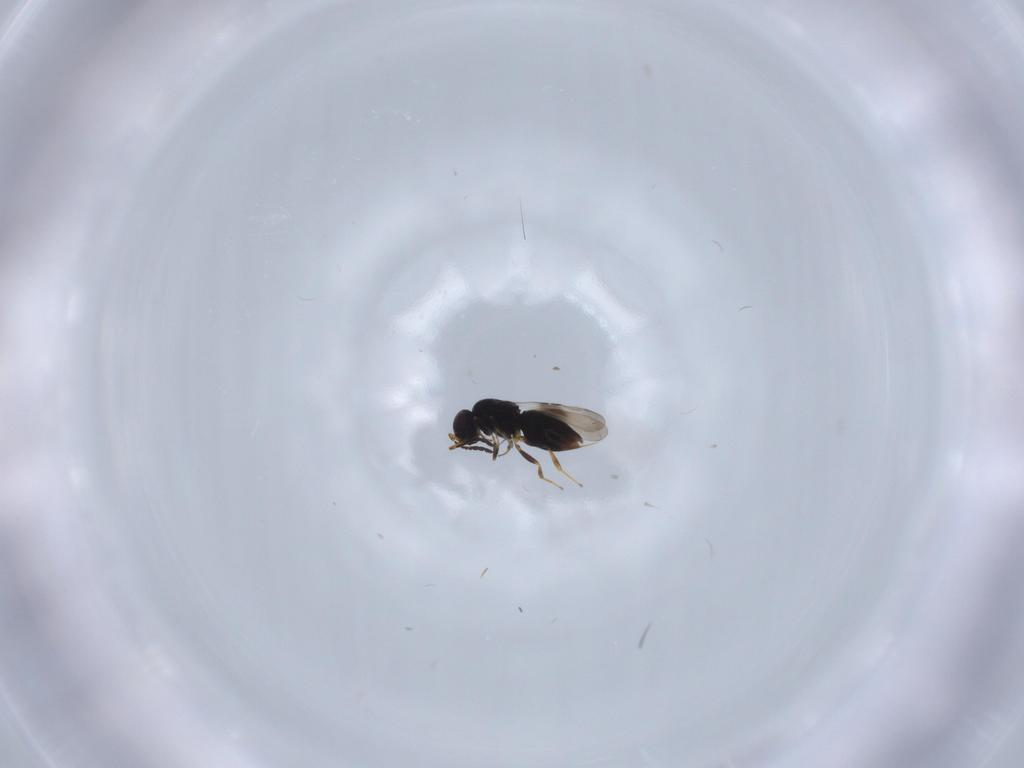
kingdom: Animalia
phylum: Arthropoda
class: Insecta
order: Hymenoptera
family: Ceraphronidae
